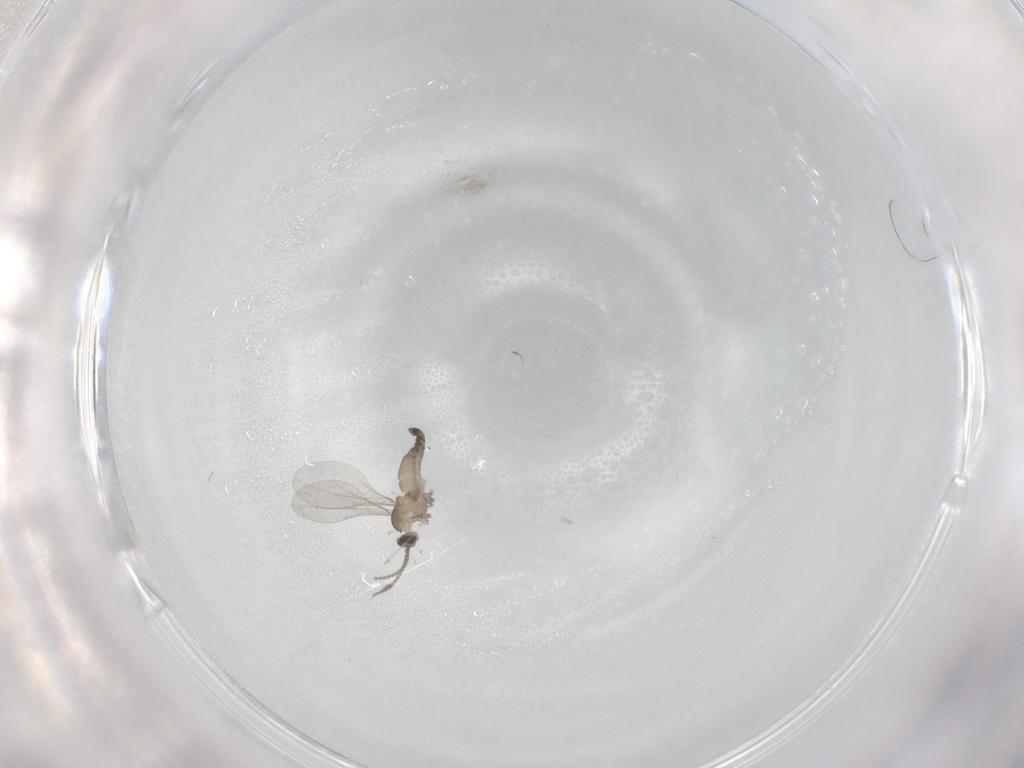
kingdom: Animalia
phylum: Arthropoda
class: Insecta
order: Diptera
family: Cecidomyiidae
